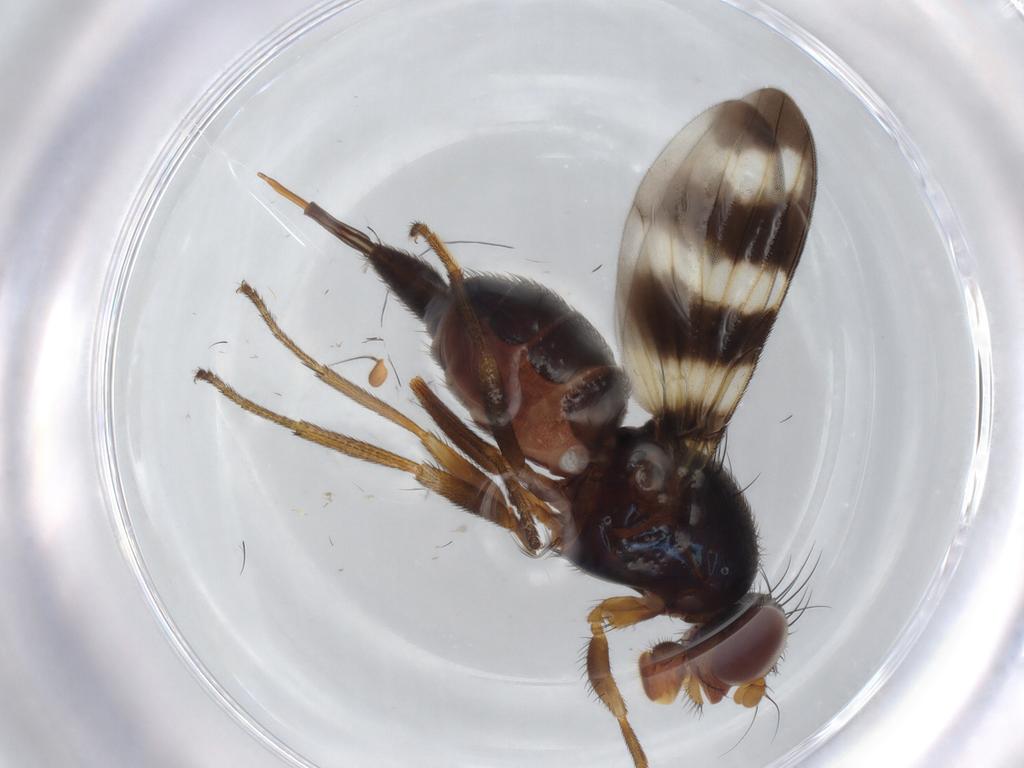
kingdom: Animalia
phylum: Arthropoda
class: Insecta
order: Diptera
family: Ulidiidae
